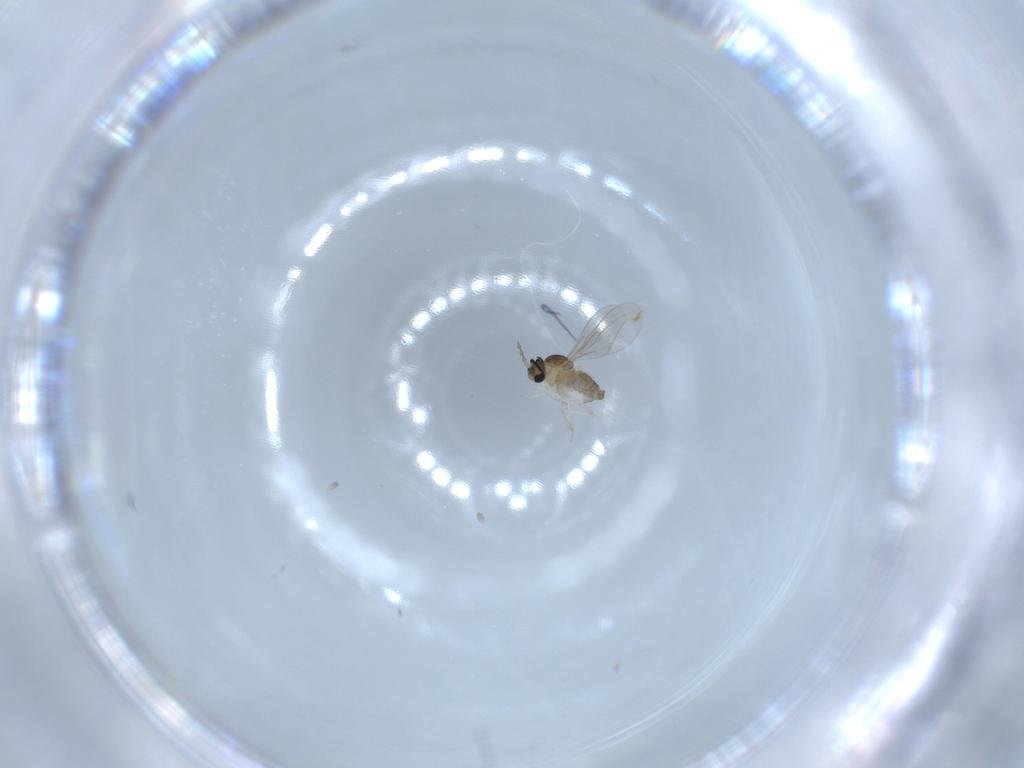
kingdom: Animalia
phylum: Arthropoda
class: Insecta
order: Diptera
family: Cecidomyiidae
